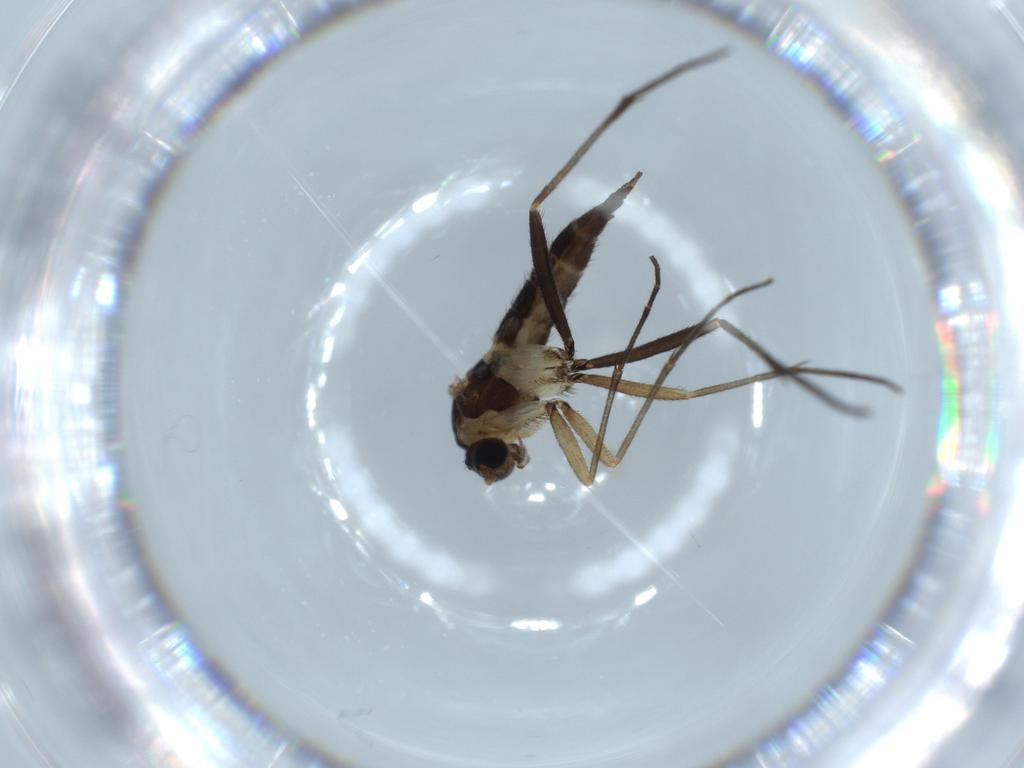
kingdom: Animalia
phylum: Arthropoda
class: Insecta
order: Diptera
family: Sciaridae
